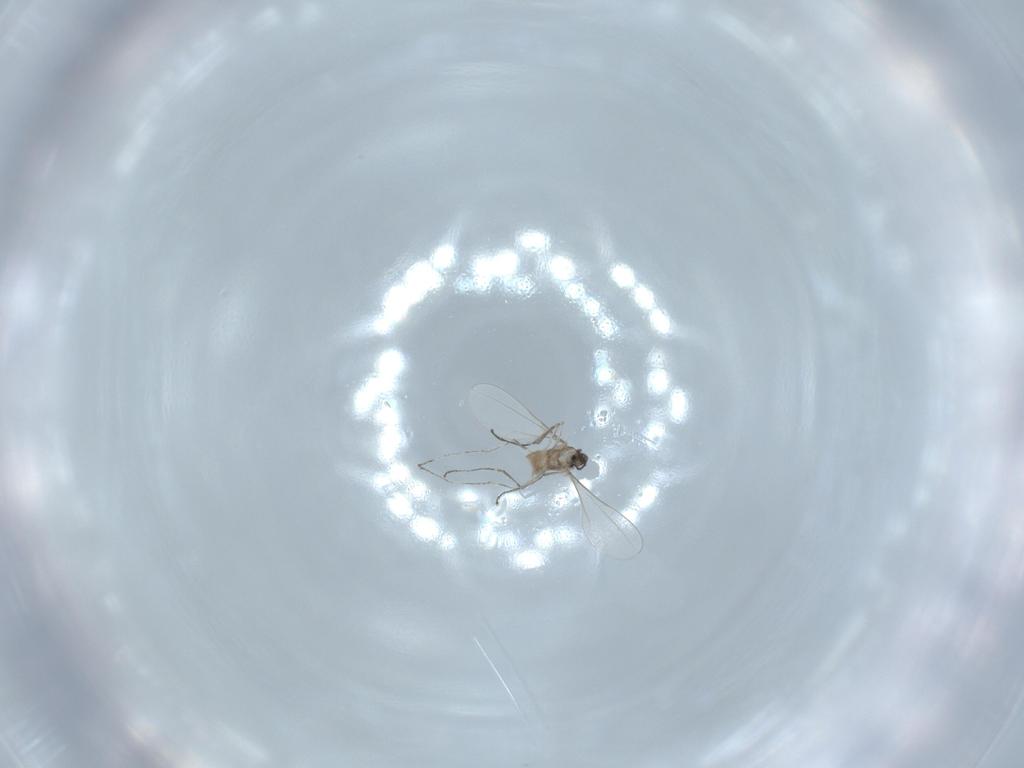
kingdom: Animalia
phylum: Arthropoda
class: Insecta
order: Diptera
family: Cecidomyiidae
